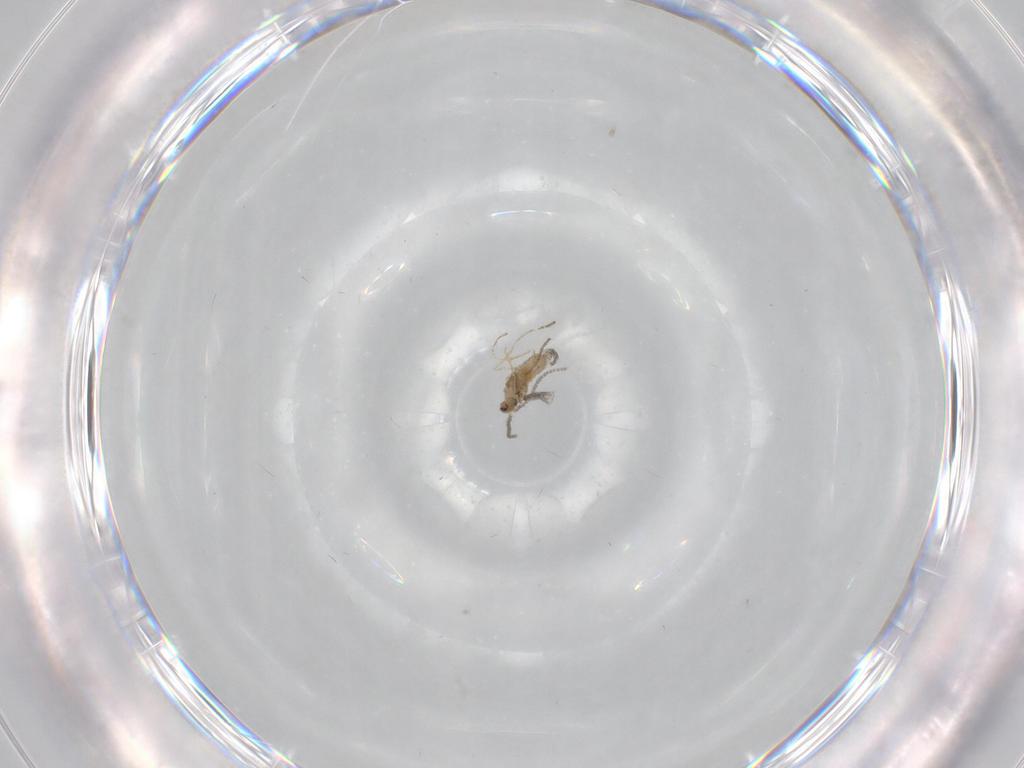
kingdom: Animalia
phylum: Arthropoda
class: Insecta
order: Diptera
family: Cecidomyiidae
